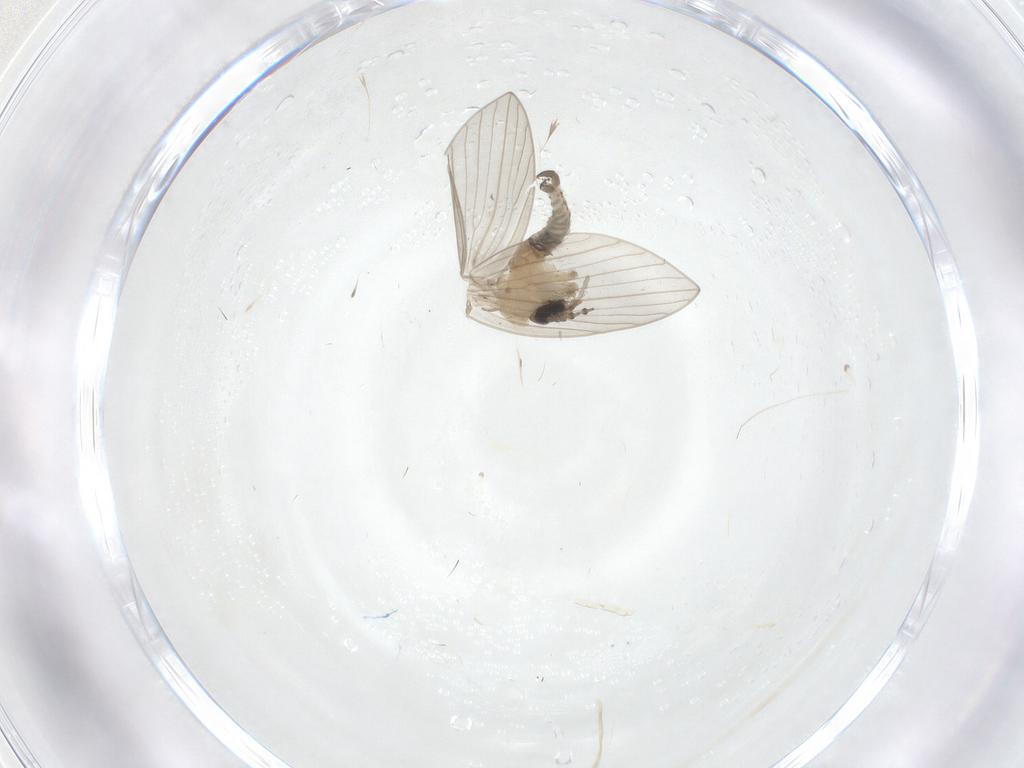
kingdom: Animalia
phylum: Arthropoda
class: Insecta
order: Diptera
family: Psychodidae
